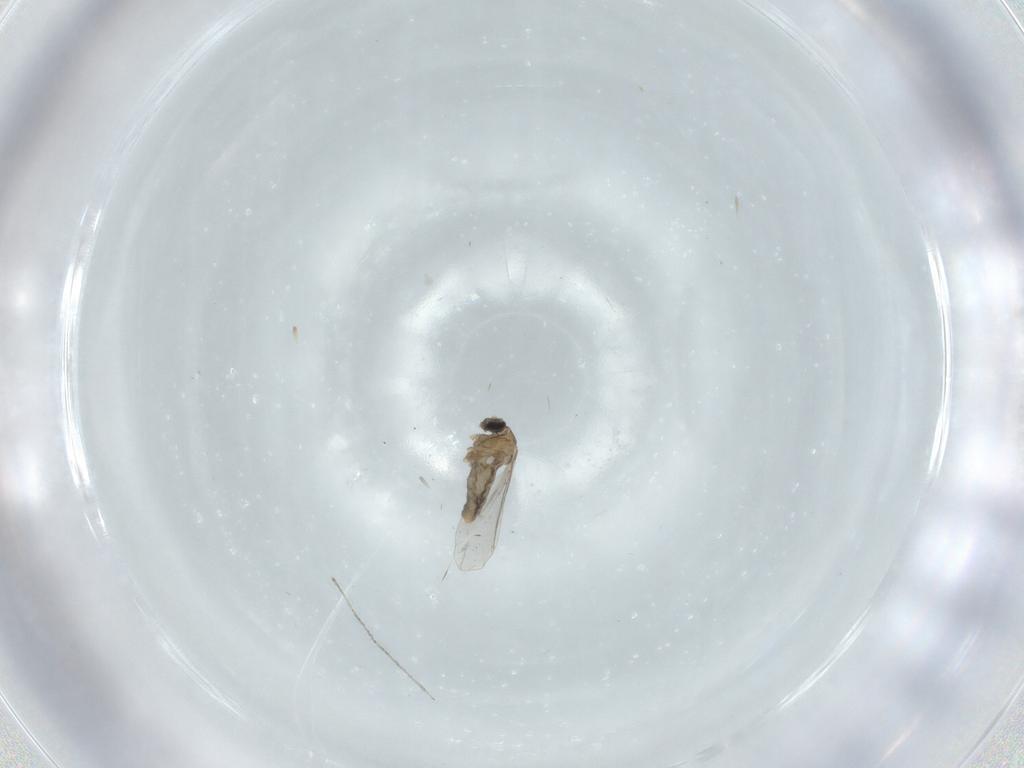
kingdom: Animalia
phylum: Arthropoda
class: Insecta
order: Diptera
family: Cecidomyiidae
